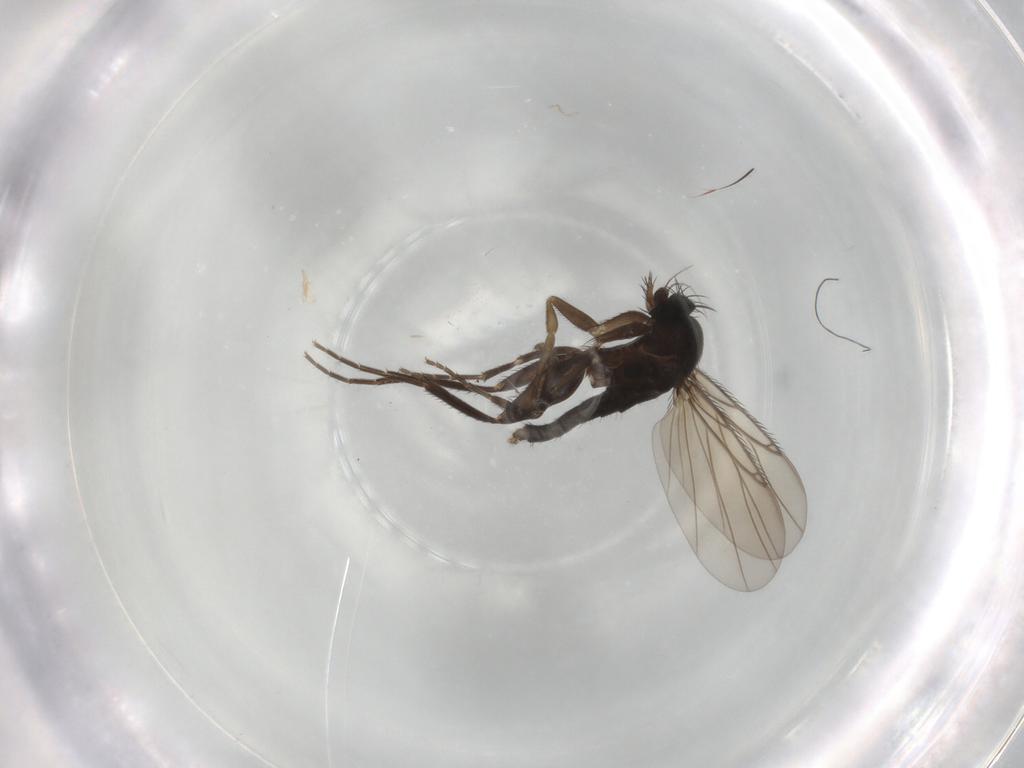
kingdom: Animalia
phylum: Arthropoda
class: Insecta
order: Diptera
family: Phoridae
